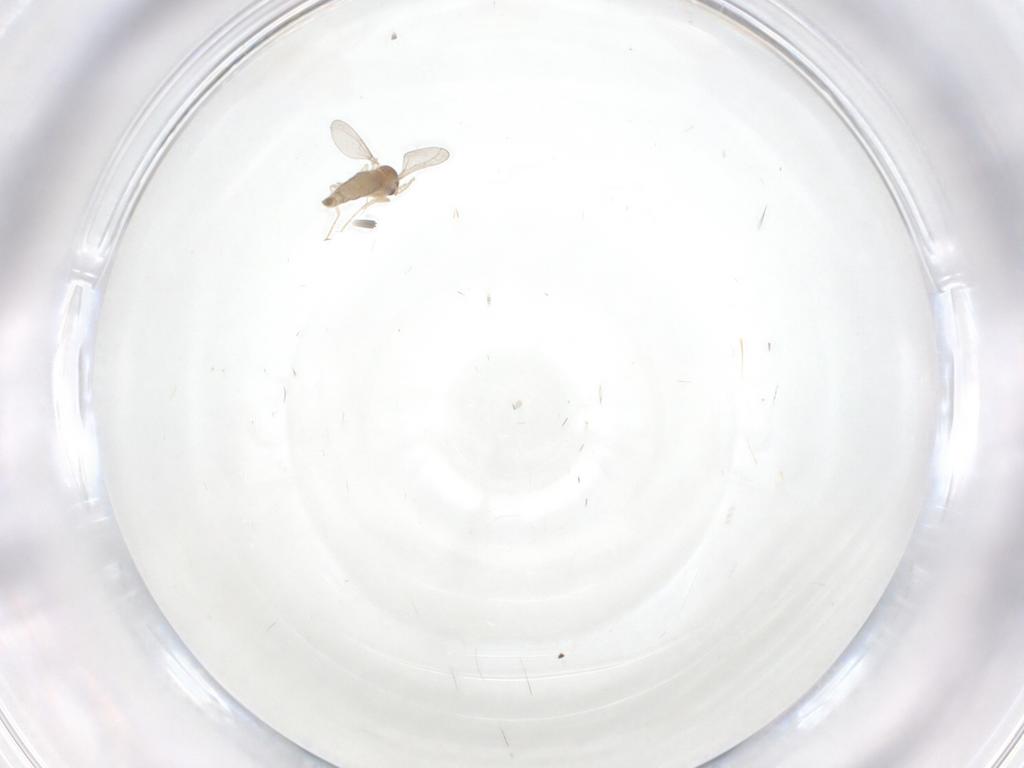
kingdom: Animalia
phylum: Arthropoda
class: Insecta
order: Diptera
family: Cecidomyiidae
